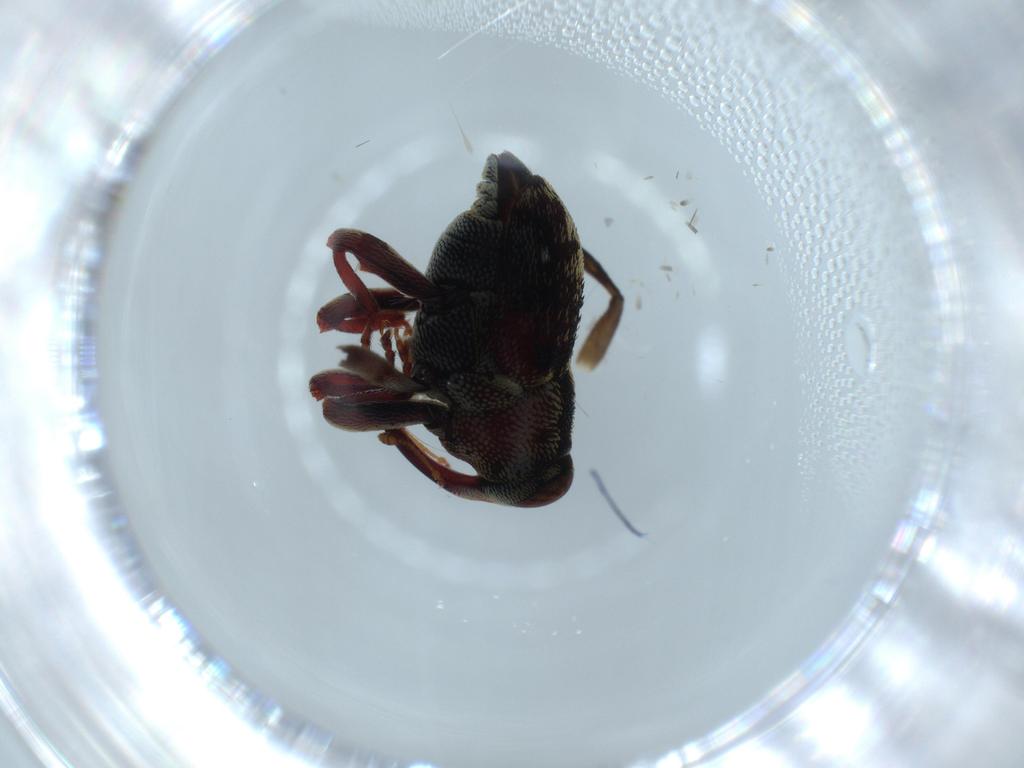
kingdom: Animalia
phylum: Arthropoda
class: Insecta
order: Coleoptera
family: Curculionidae
